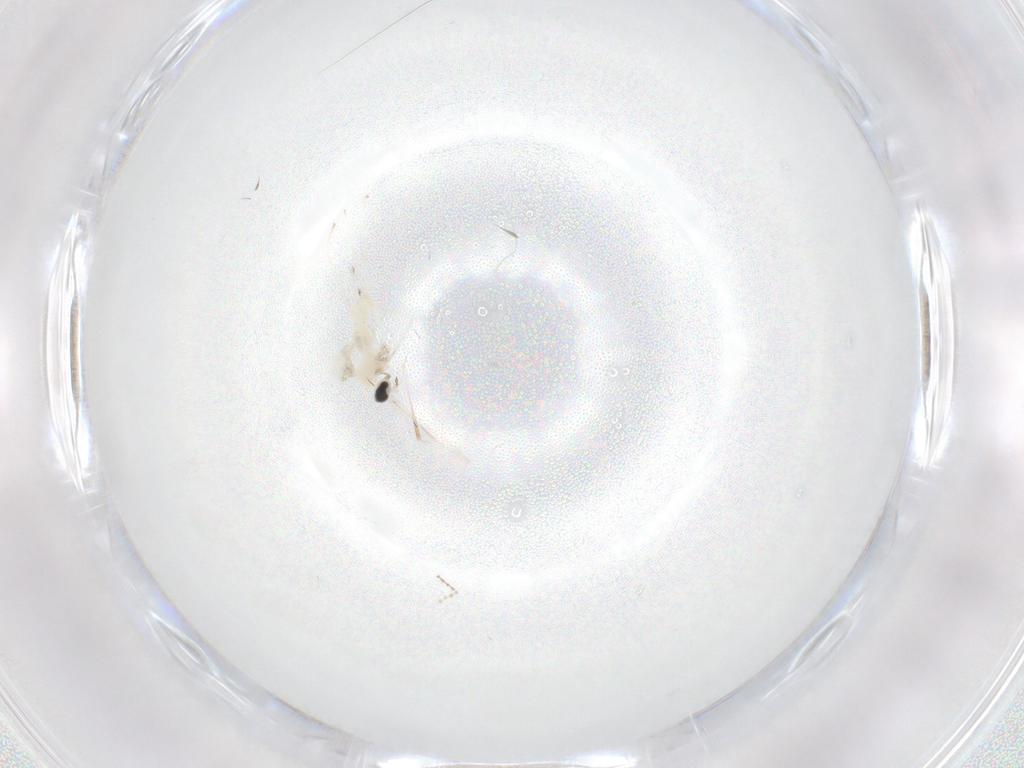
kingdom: Animalia
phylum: Arthropoda
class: Insecta
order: Diptera
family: Cecidomyiidae
